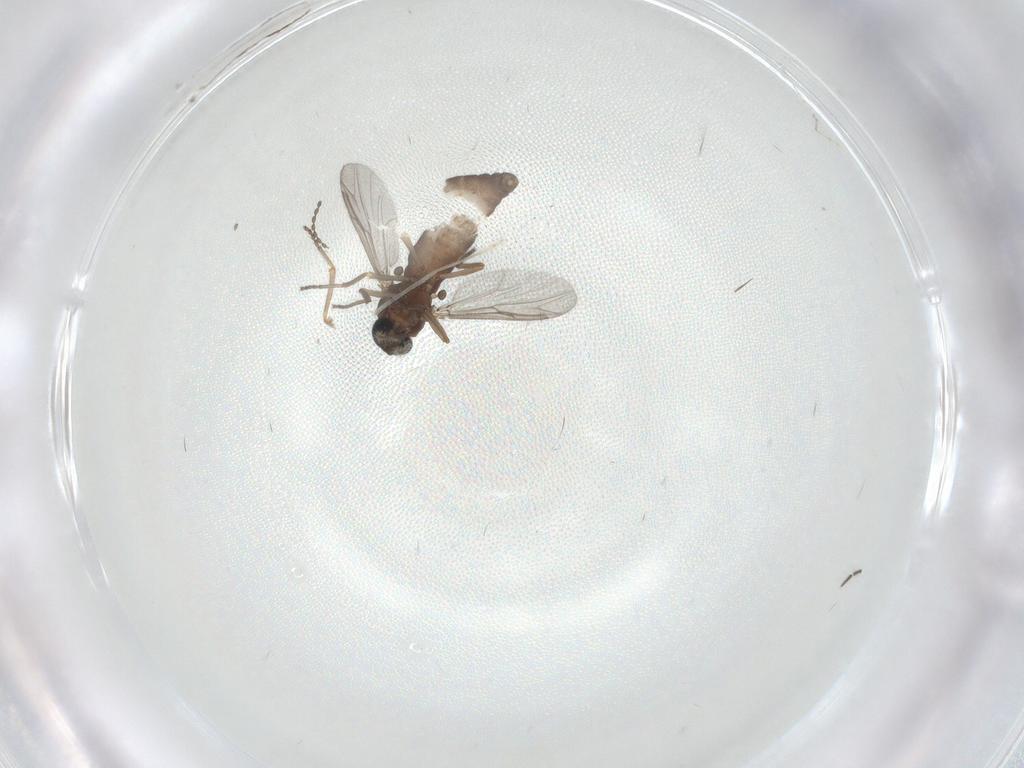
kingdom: Animalia
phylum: Arthropoda
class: Insecta
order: Diptera
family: Ceratopogonidae
